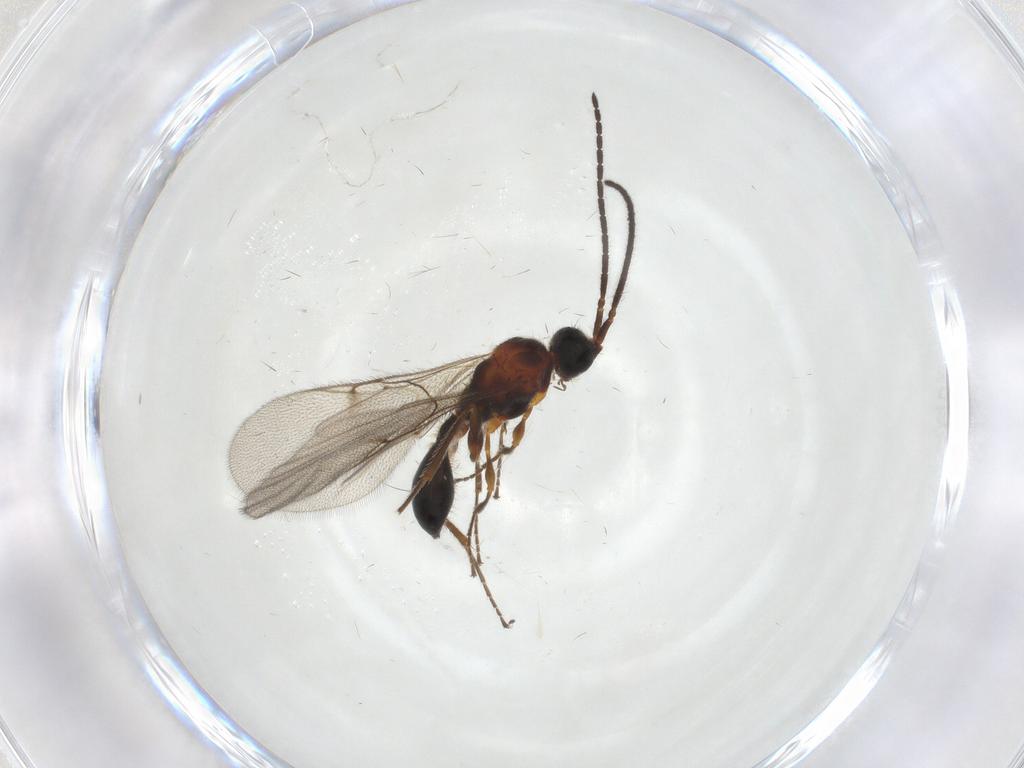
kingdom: Animalia
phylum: Arthropoda
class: Insecta
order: Hymenoptera
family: Diapriidae
